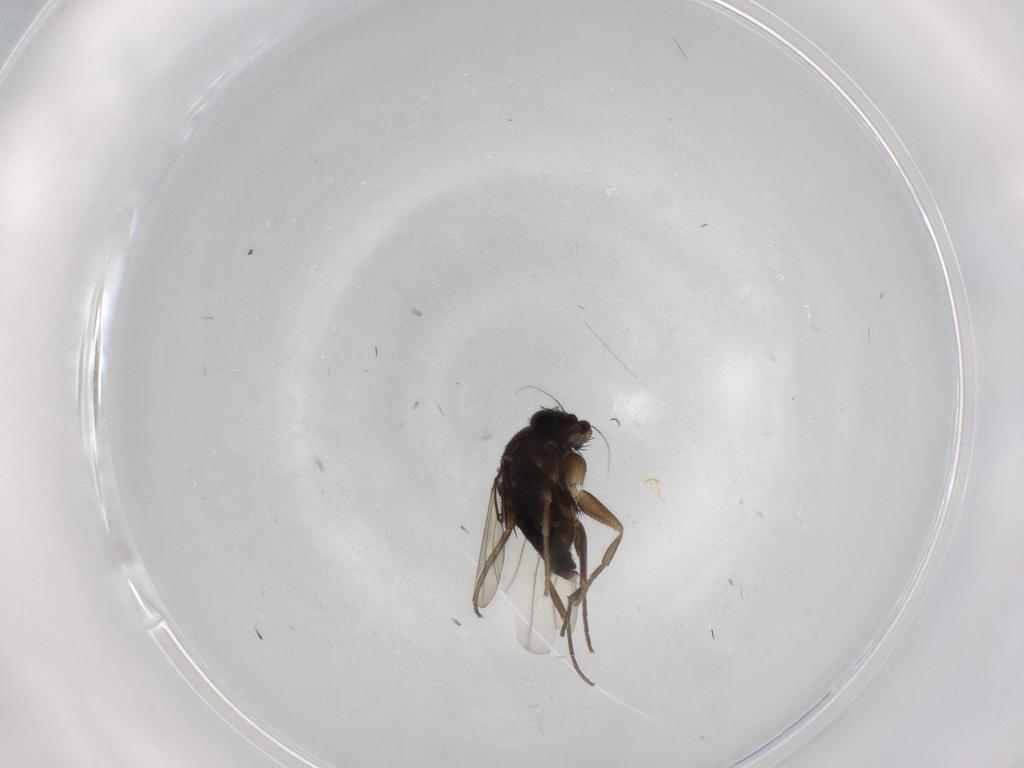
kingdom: Animalia
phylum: Arthropoda
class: Insecta
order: Diptera
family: Phoridae
